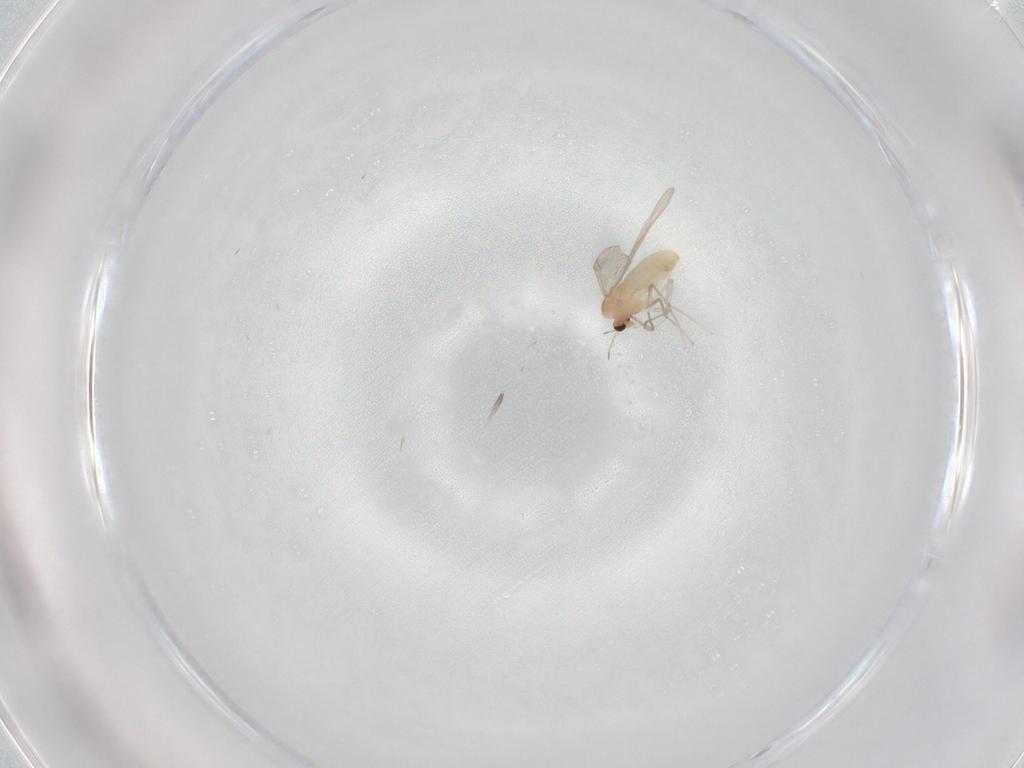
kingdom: Animalia
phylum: Arthropoda
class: Insecta
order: Diptera
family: Chironomidae
